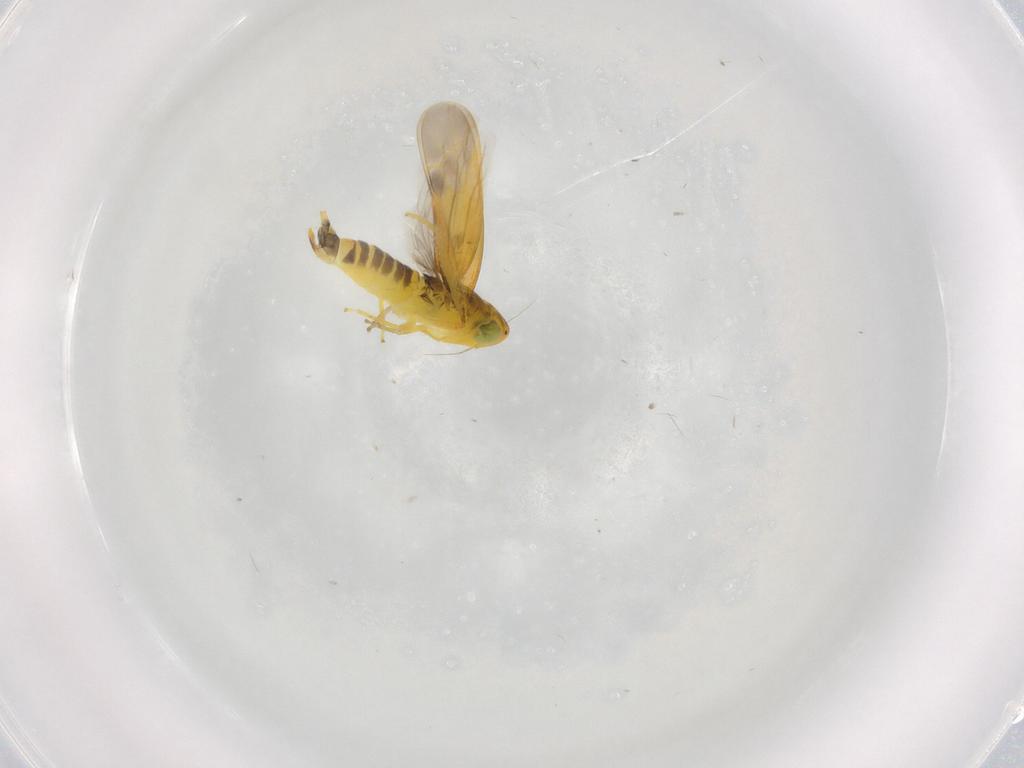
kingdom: Animalia
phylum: Arthropoda
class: Insecta
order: Hemiptera
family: Cicadellidae
